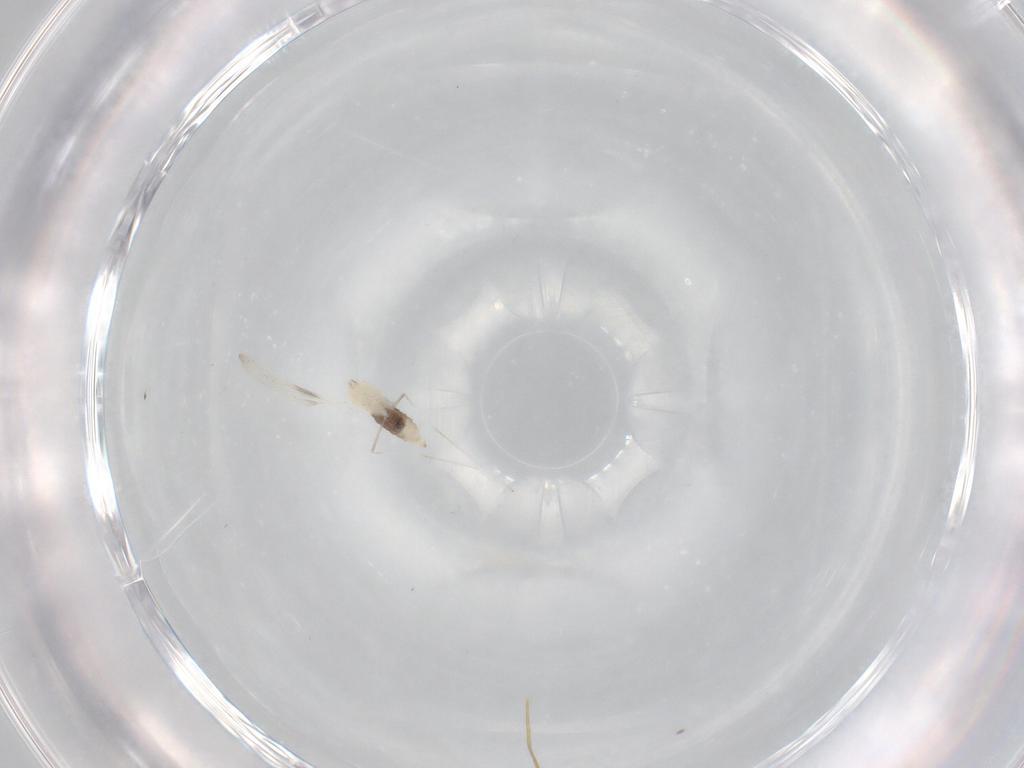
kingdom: Animalia
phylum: Arthropoda
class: Insecta
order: Diptera
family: Cecidomyiidae
